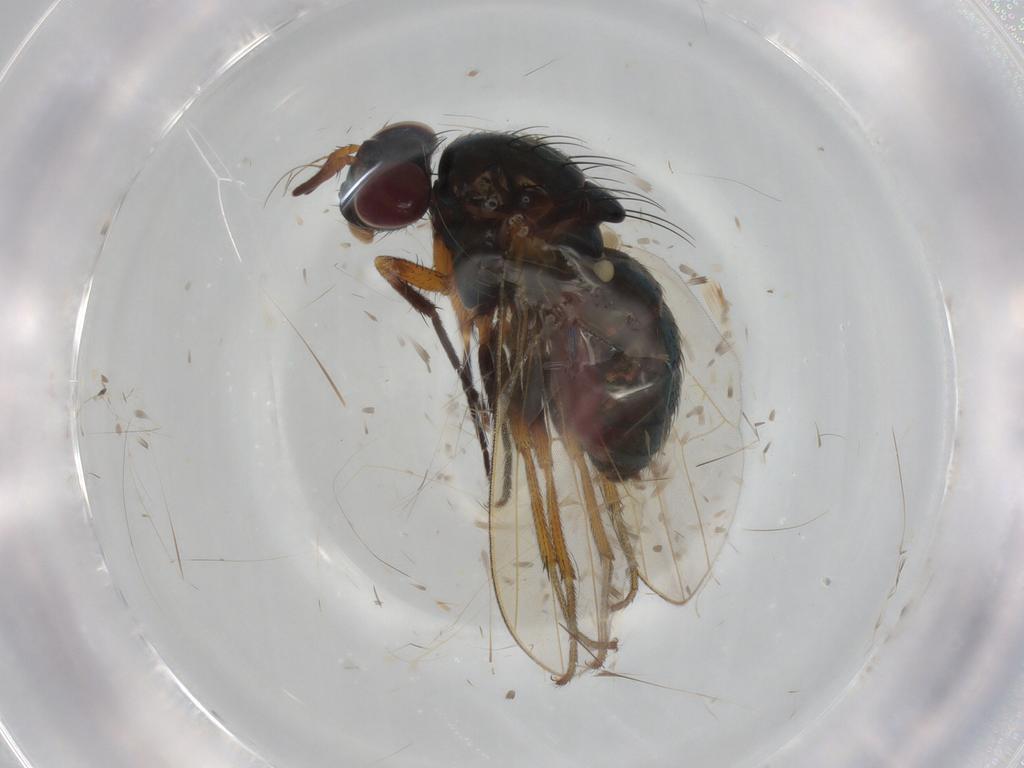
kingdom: Animalia
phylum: Arthropoda
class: Insecta
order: Diptera
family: Lauxaniidae
